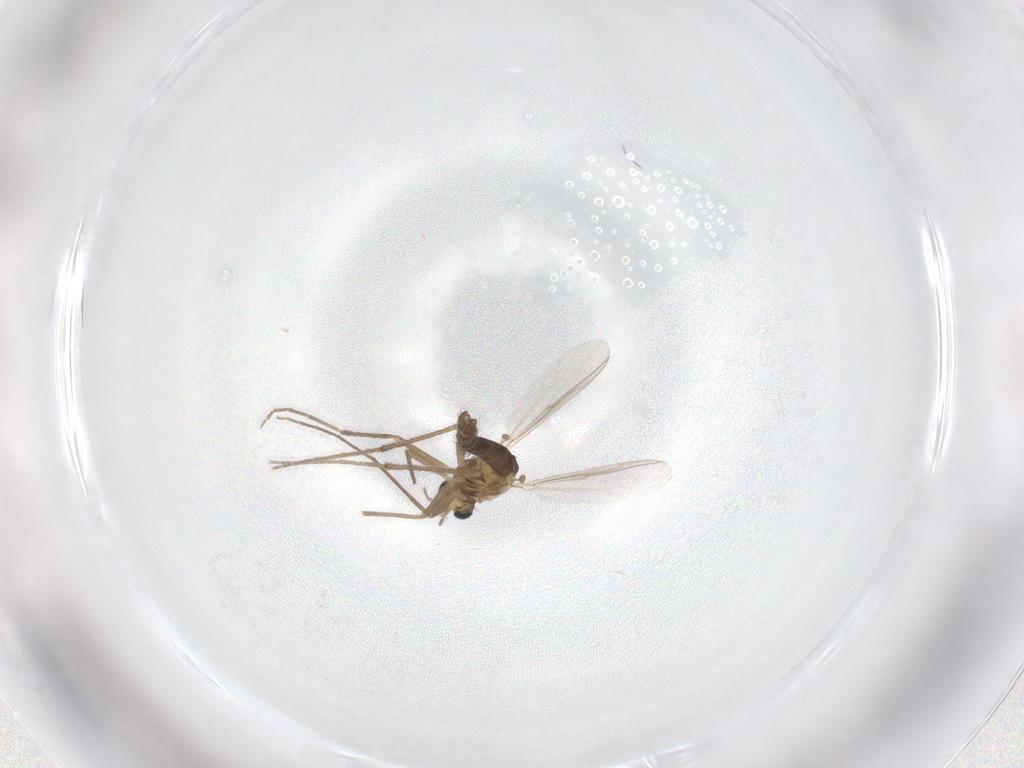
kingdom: Animalia
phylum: Arthropoda
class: Insecta
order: Diptera
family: Chironomidae
